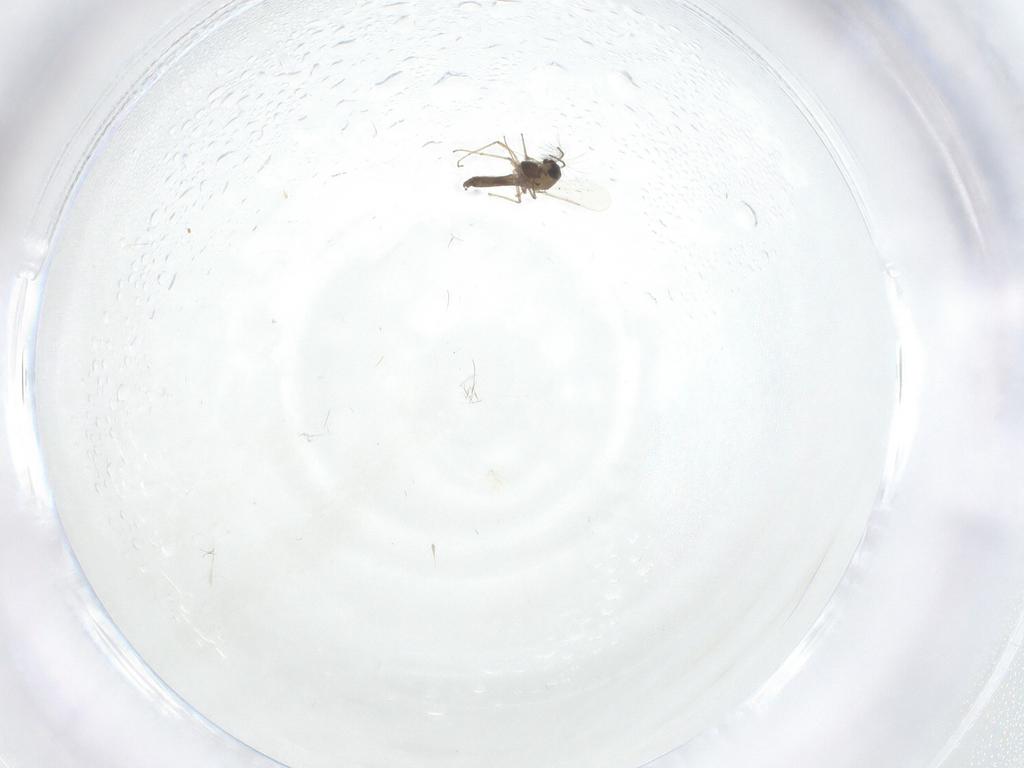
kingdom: Animalia
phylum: Arthropoda
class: Insecta
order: Diptera
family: Chironomidae
